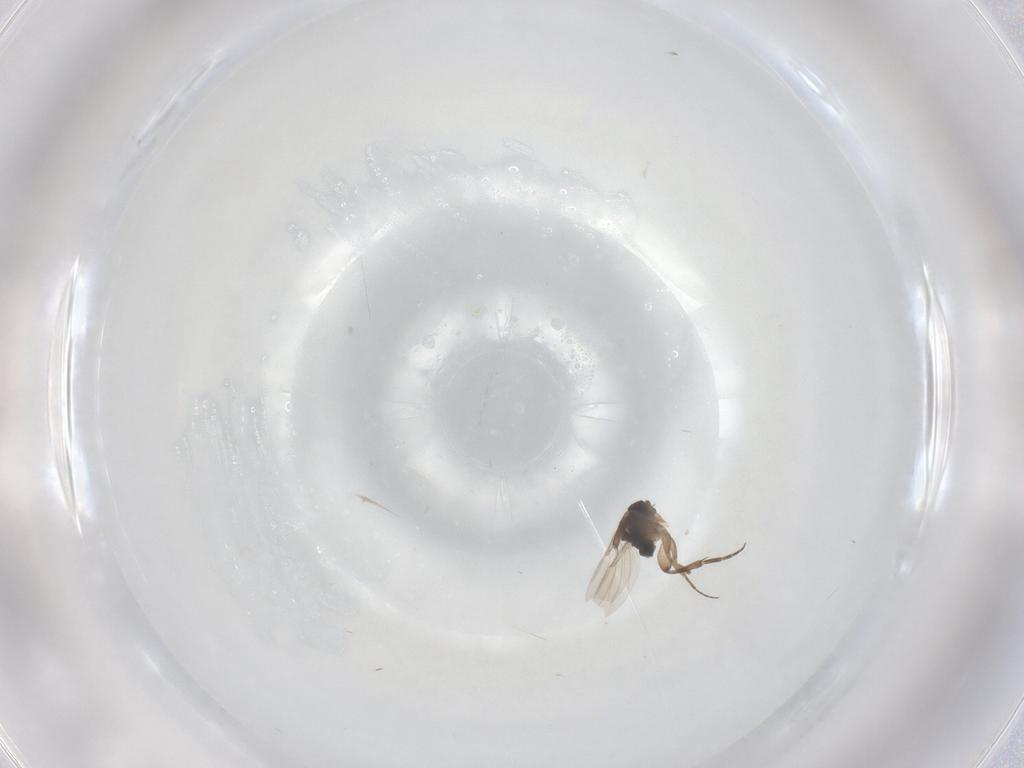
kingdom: Animalia
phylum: Arthropoda
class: Insecta
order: Diptera
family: Phoridae
